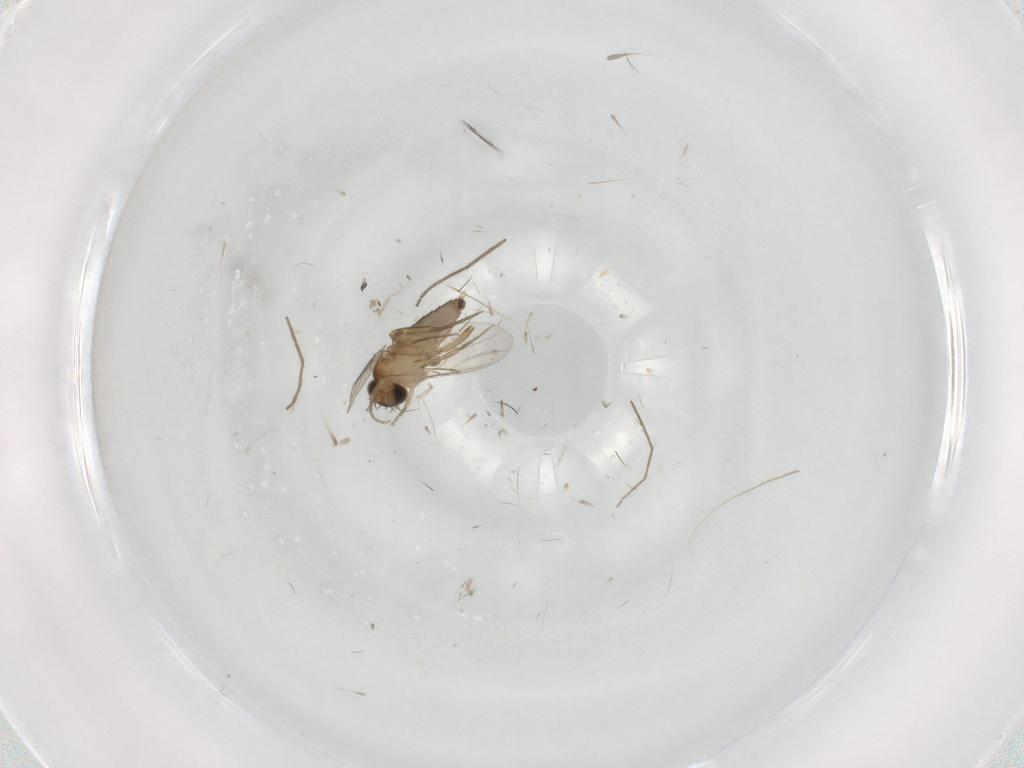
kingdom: Animalia
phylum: Arthropoda
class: Insecta
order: Diptera
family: Phoridae
